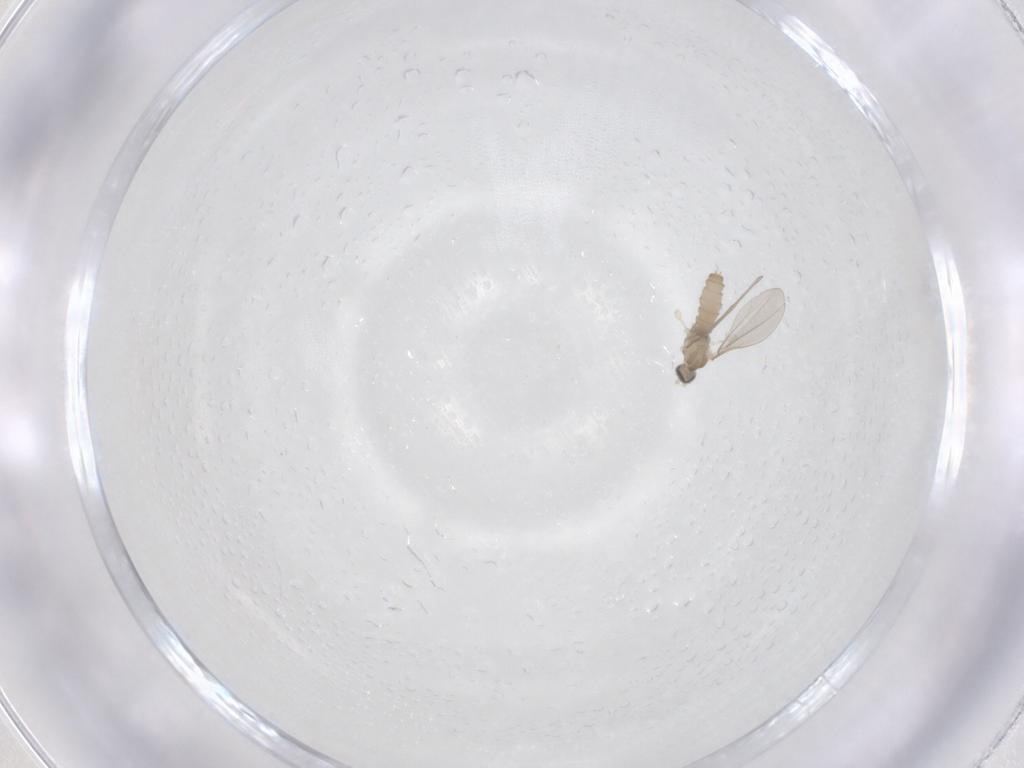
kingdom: Animalia
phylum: Arthropoda
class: Insecta
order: Diptera
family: Cecidomyiidae
